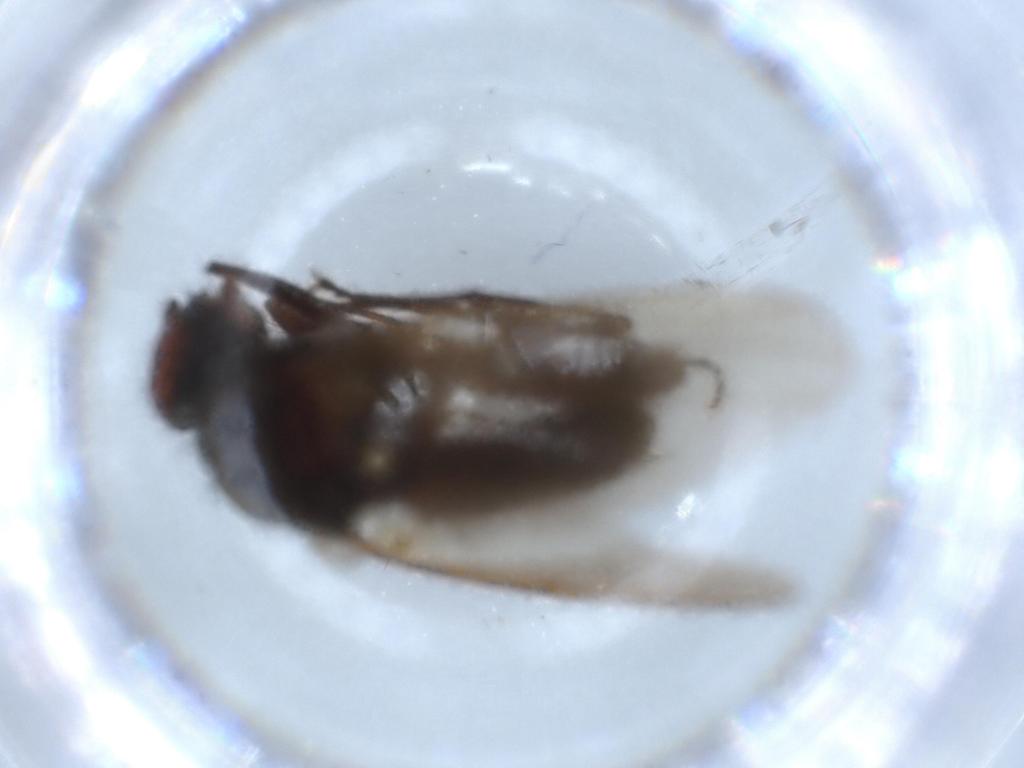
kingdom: Animalia
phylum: Arthropoda
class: Insecta
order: Diptera
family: Anthomyiidae
